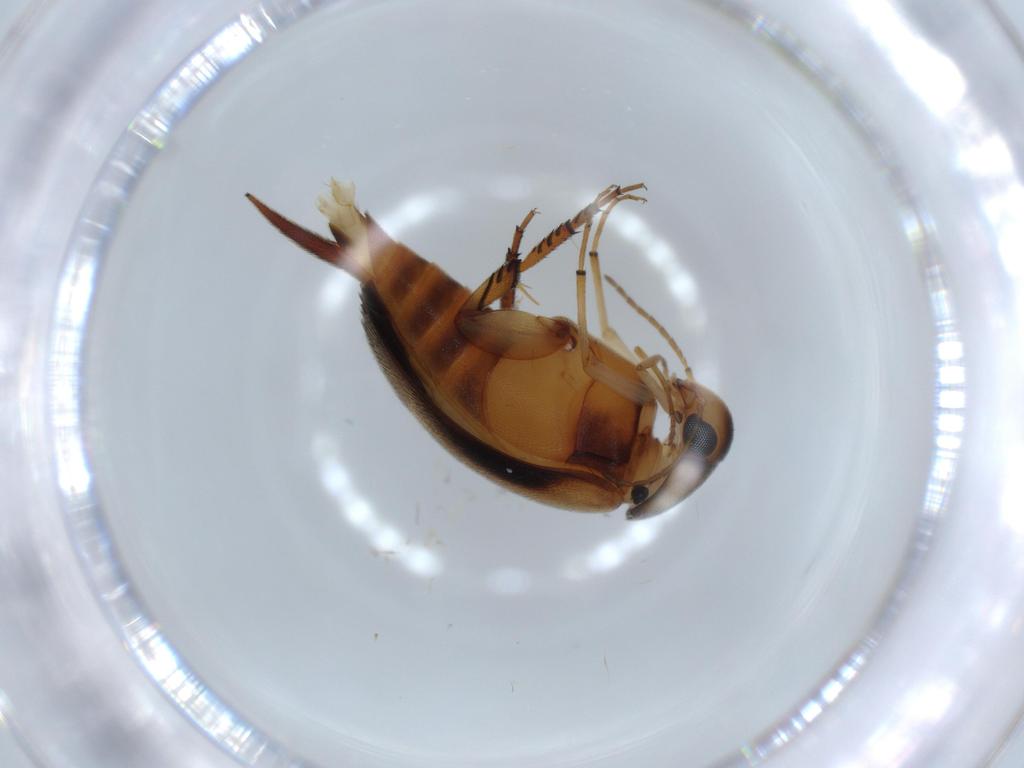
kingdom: Animalia
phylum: Arthropoda
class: Insecta
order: Coleoptera
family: Mordellidae
